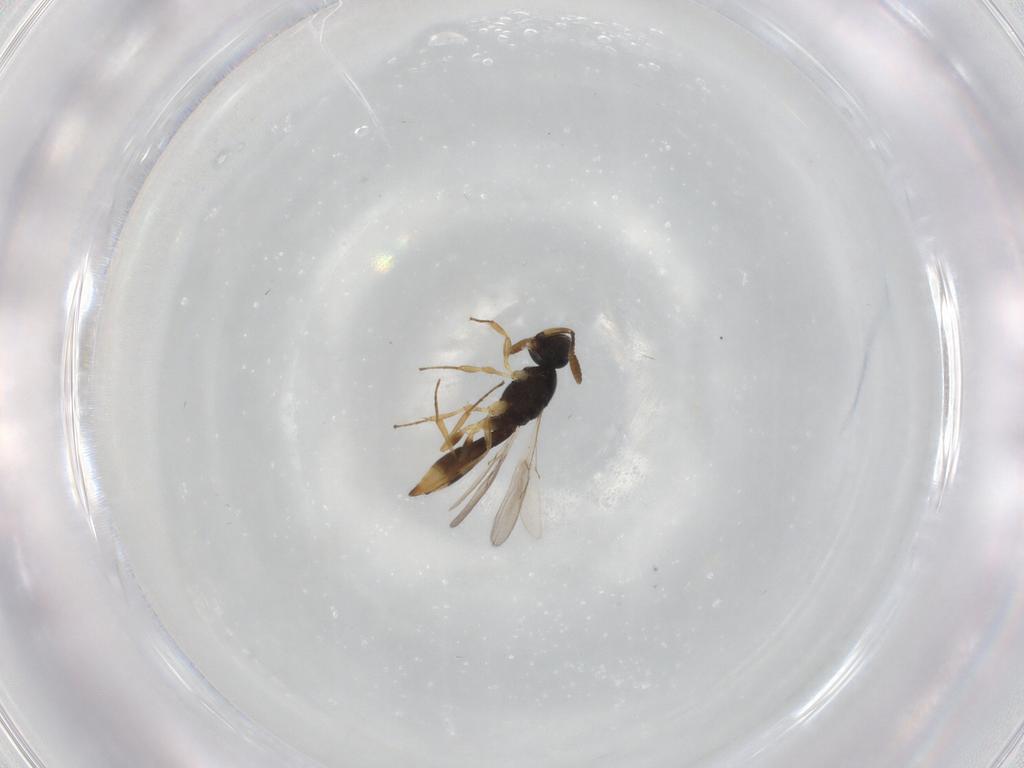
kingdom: Animalia
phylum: Arthropoda
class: Insecta
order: Hymenoptera
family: Scelionidae
